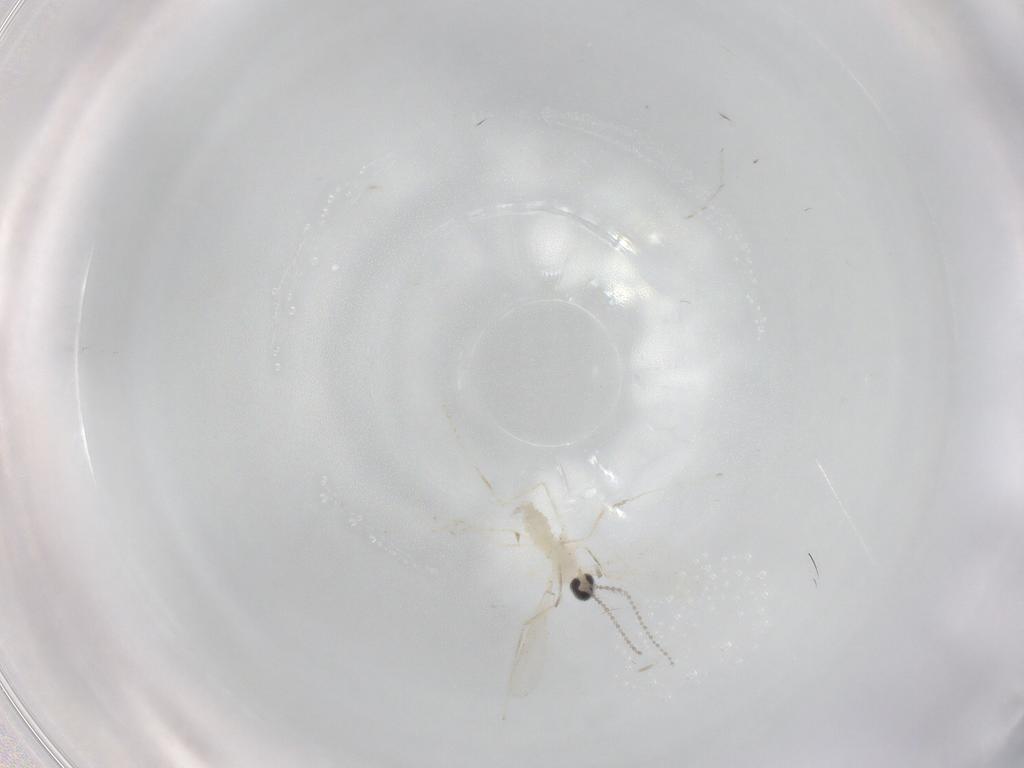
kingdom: Animalia
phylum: Arthropoda
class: Insecta
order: Diptera
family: Cecidomyiidae
